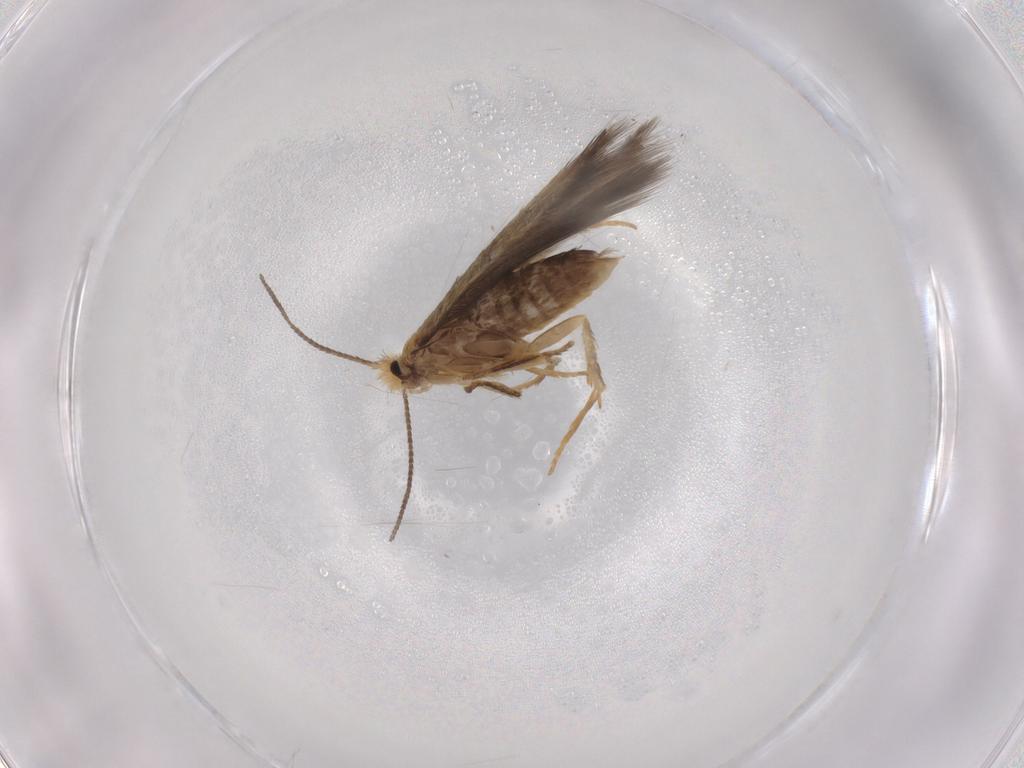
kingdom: Animalia
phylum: Arthropoda
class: Insecta
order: Lepidoptera
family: Nepticulidae
